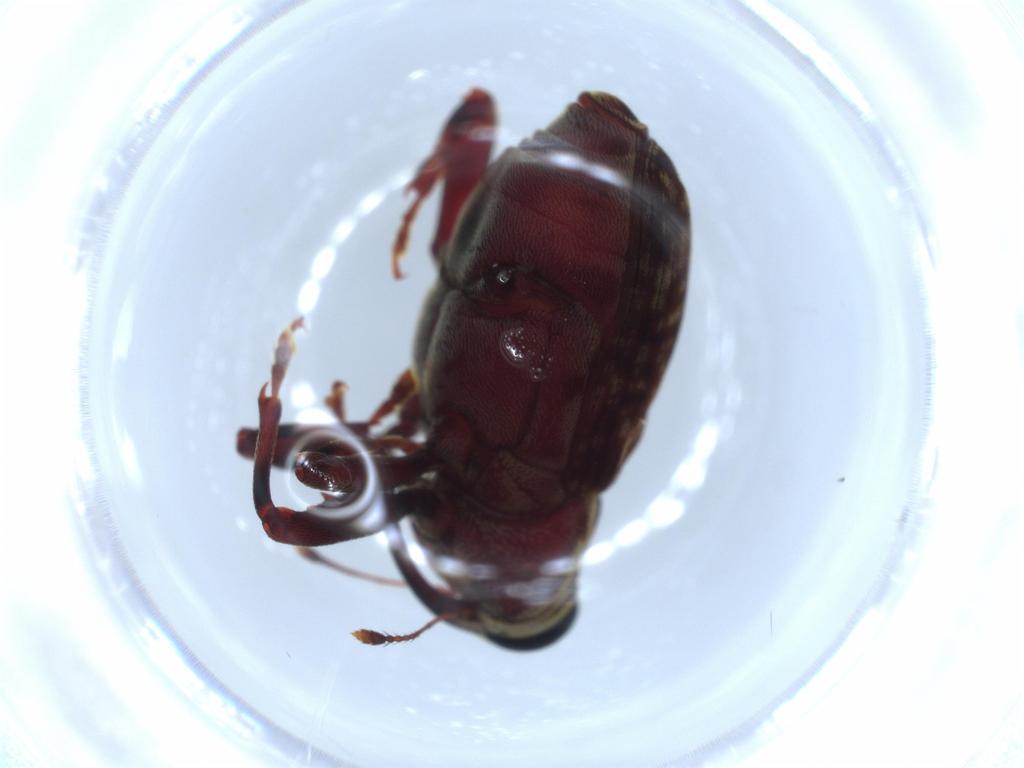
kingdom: Animalia
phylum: Arthropoda
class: Insecta
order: Coleoptera
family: Curculionidae
